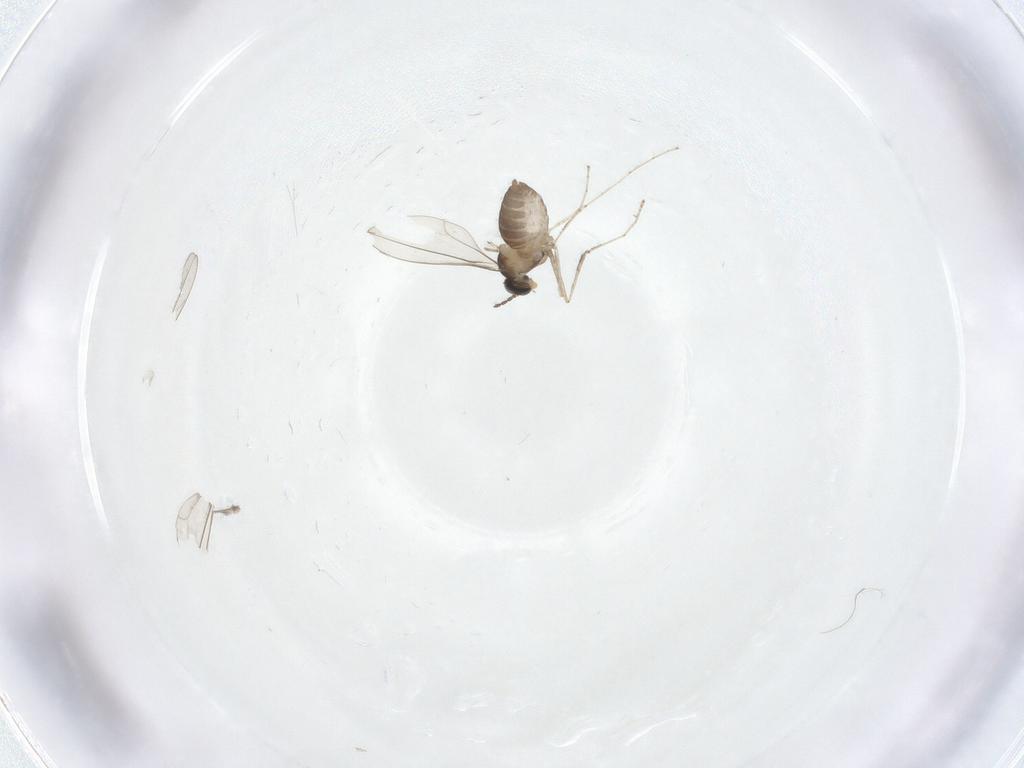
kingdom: Animalia
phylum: Arthropoda
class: Insecta
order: Diptera
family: Cecidomyiidae
